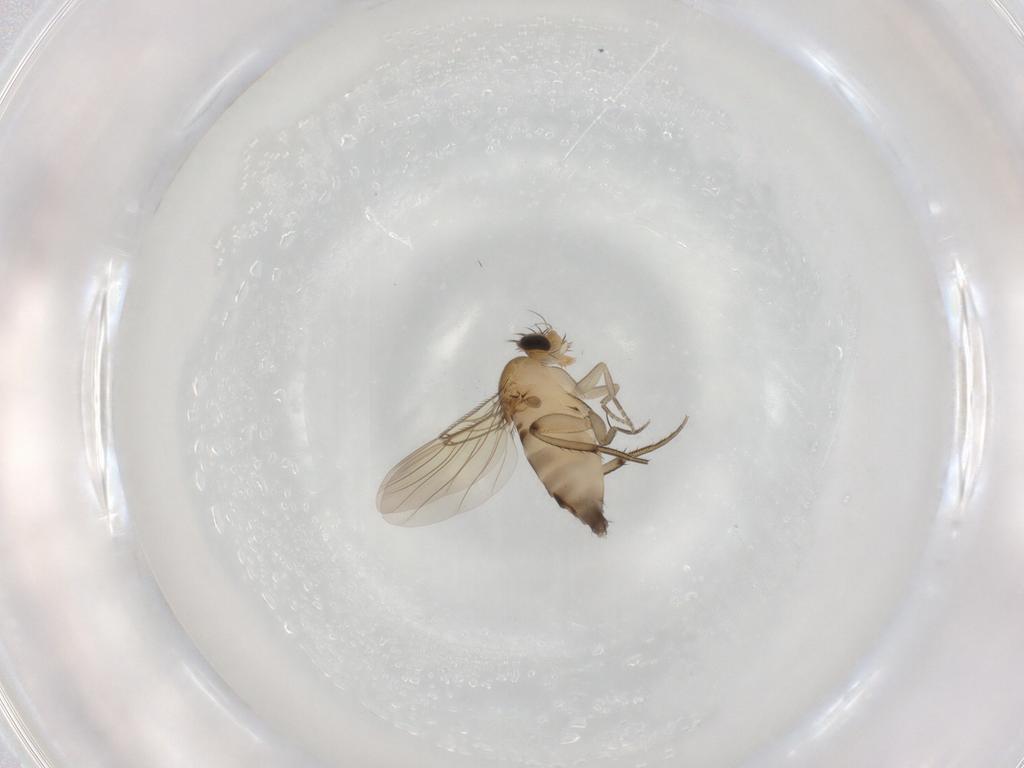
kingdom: Animalia
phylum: Arthropoda
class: Insecta
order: Diptera
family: Phoridae
